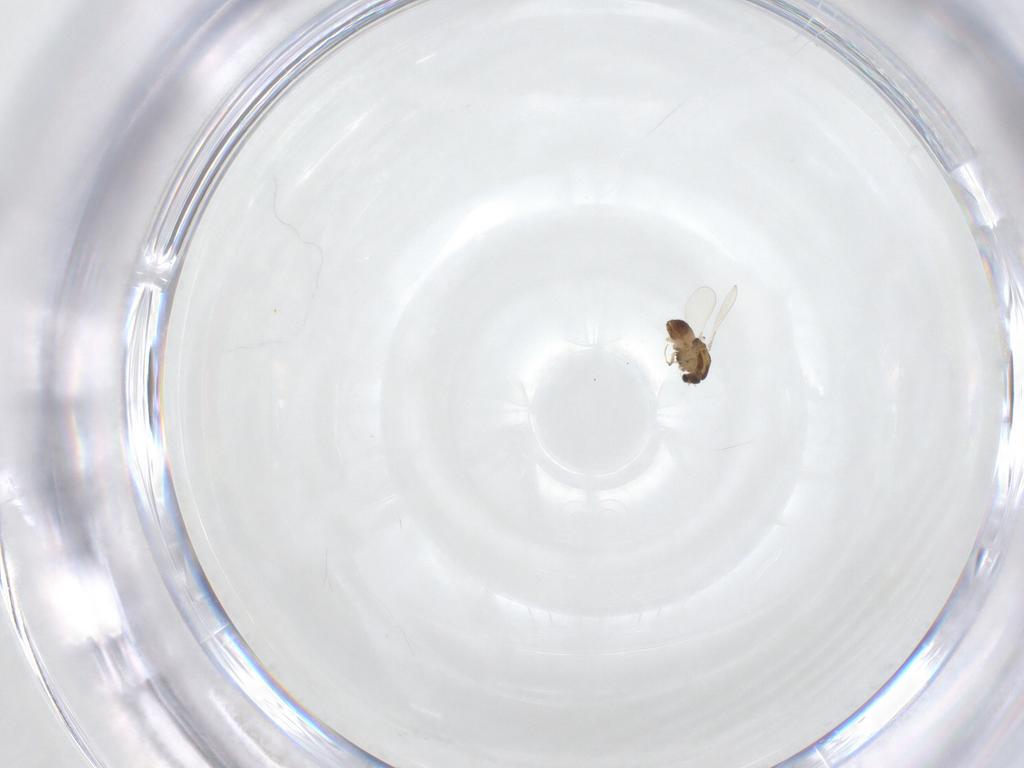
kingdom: Animalia
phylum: Arthropoda
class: Insecta
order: Diptera
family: Chironomidae
